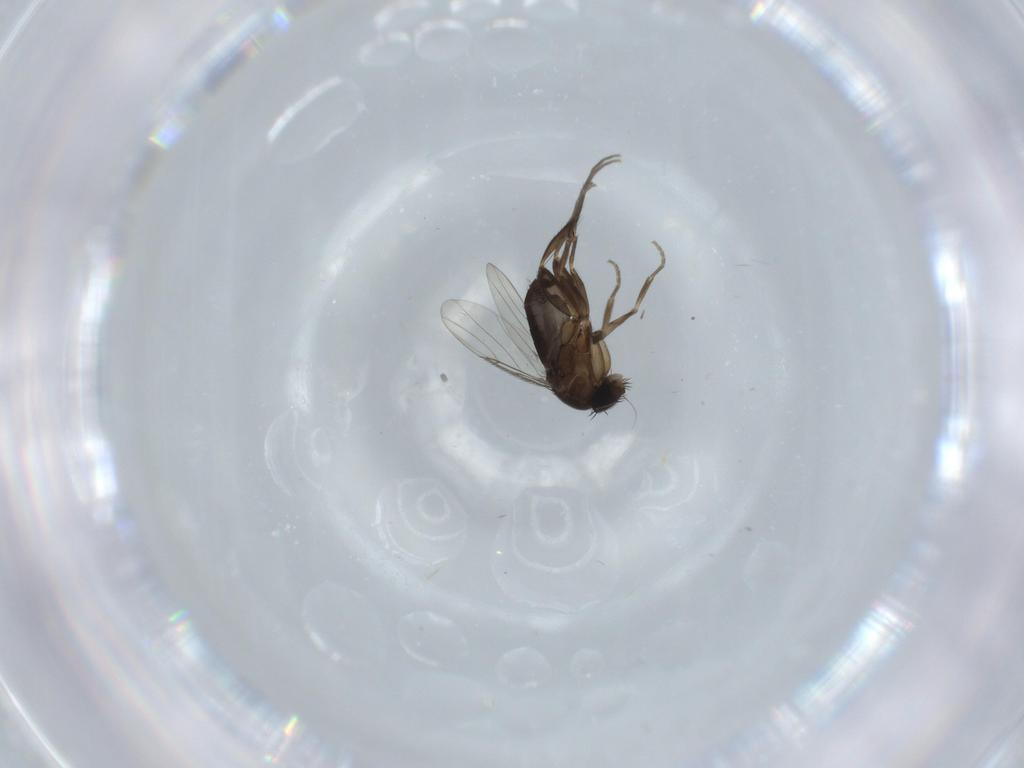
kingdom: Animalia
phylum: Arthropoda
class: Insecta
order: Diptera
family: Phoridae
